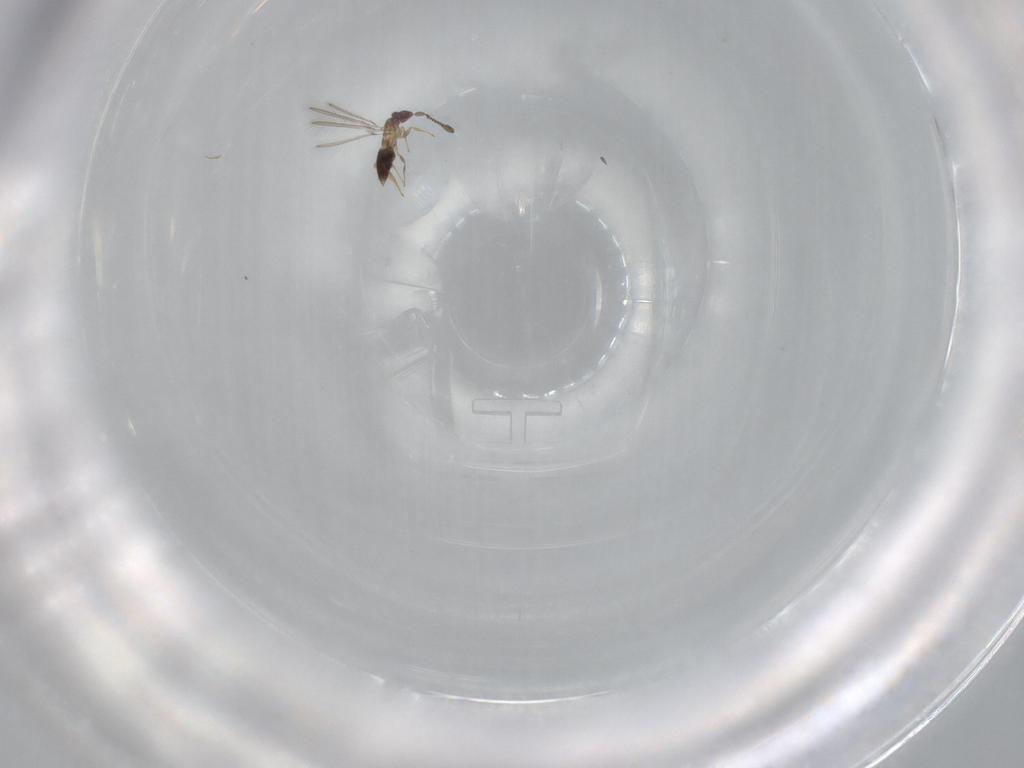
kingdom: Animalia
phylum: Arthropoda
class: Insecta
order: Hymenoptera
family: Mymaridae
